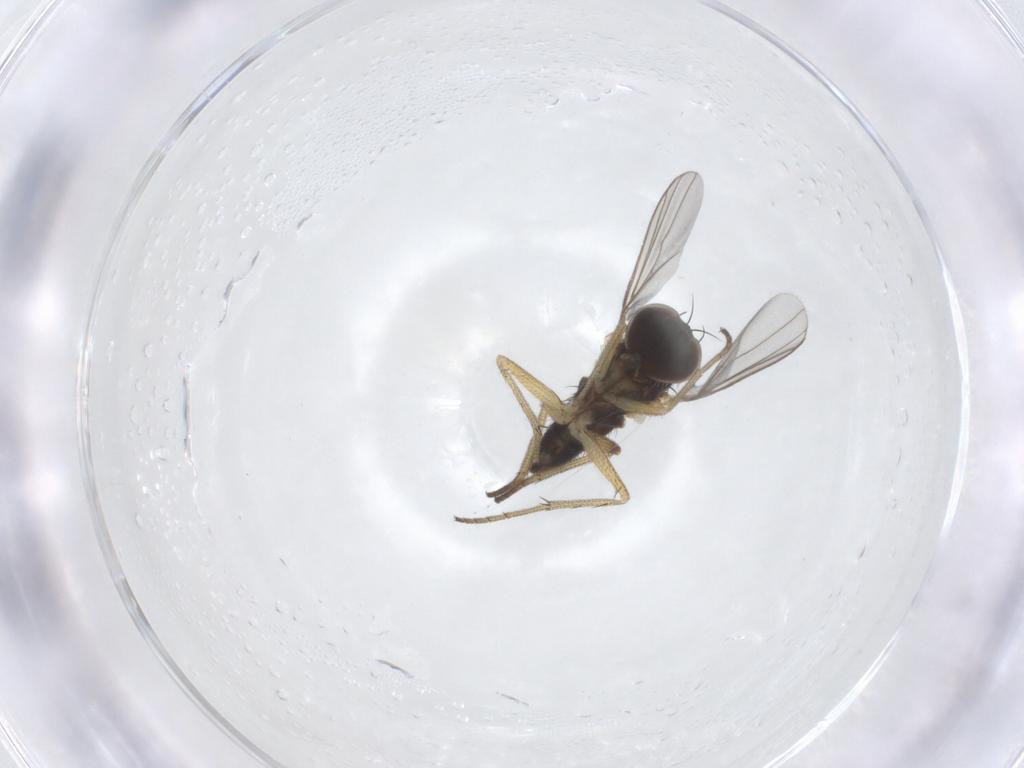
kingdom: Animalia
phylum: Arthropoda
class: Insecta
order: Diptera
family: Dolichopodidae
